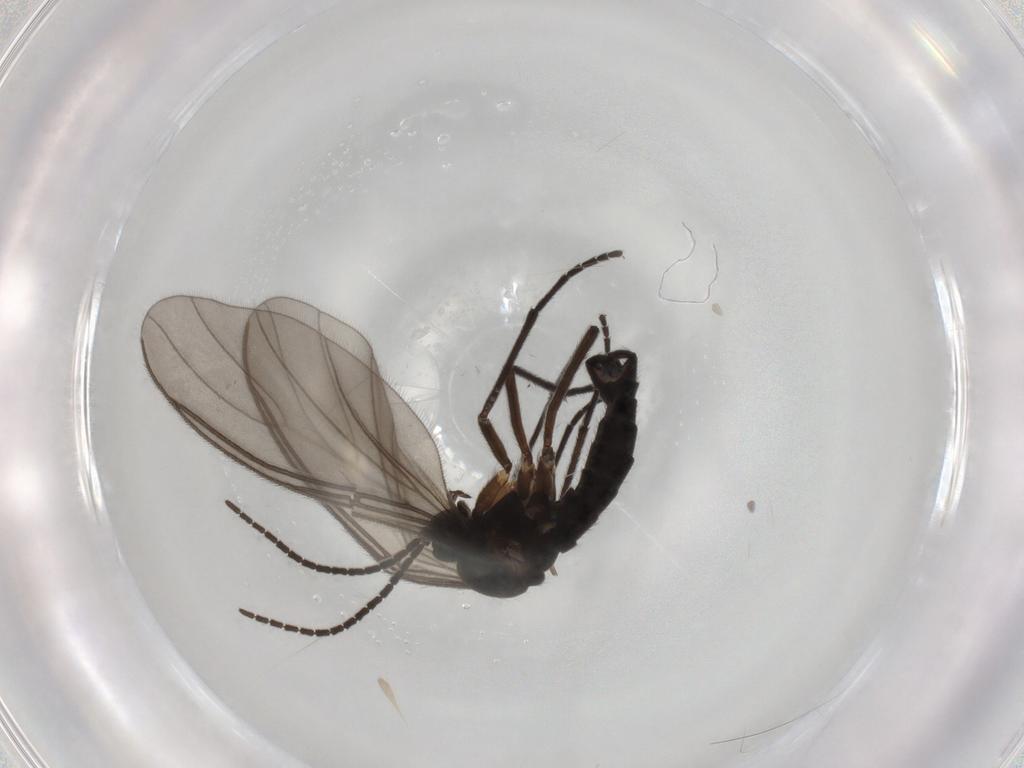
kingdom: Animalia
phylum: Arthropoda
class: Insecta
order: Diptera
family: Sciaridae
